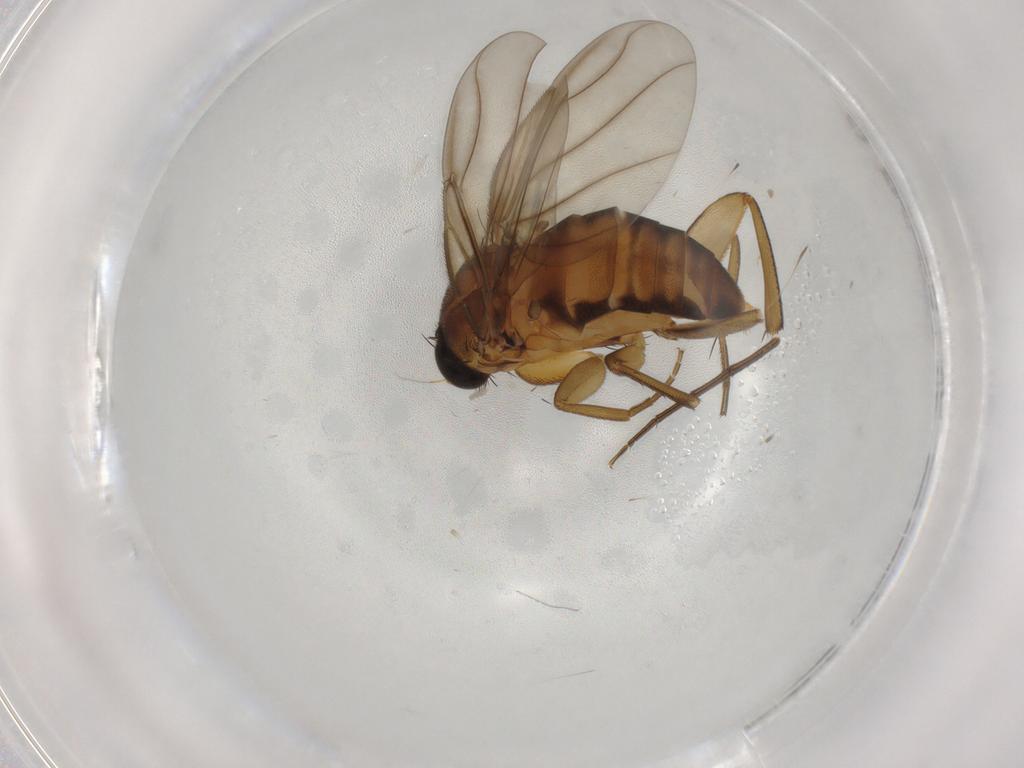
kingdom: Animalia
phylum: Arthropoda
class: Insecta
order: Diptera
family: Phoridae
